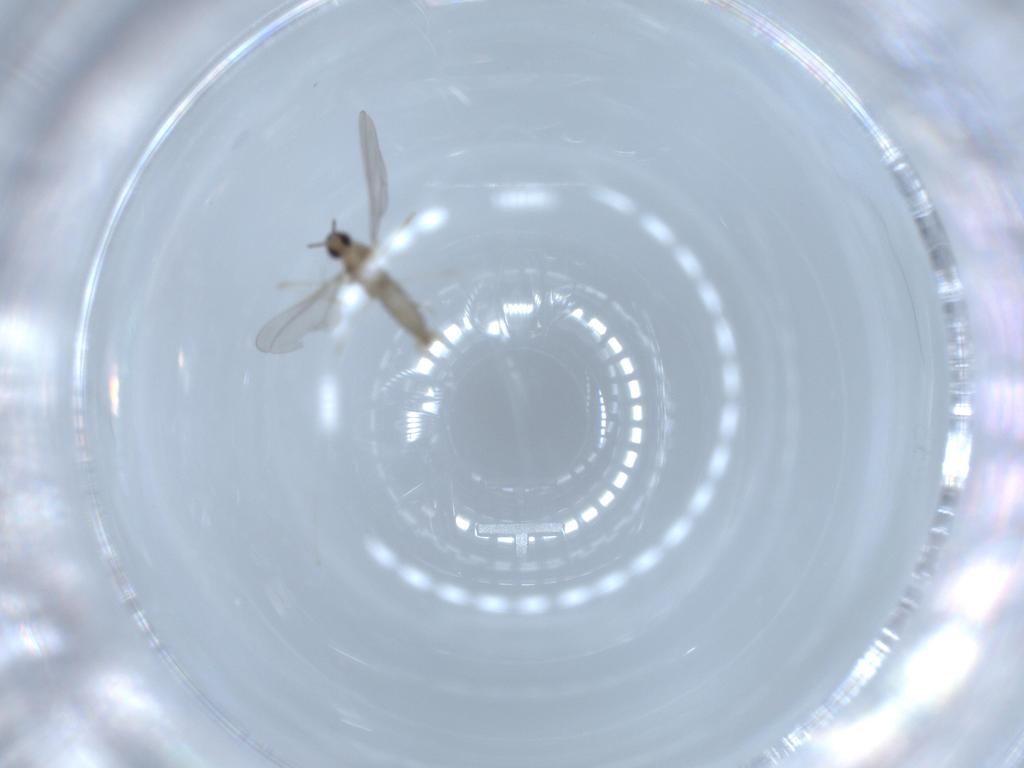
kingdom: Animalia
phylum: Arthropoda
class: Insecta
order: Diptera
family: Cecidomyiidae
